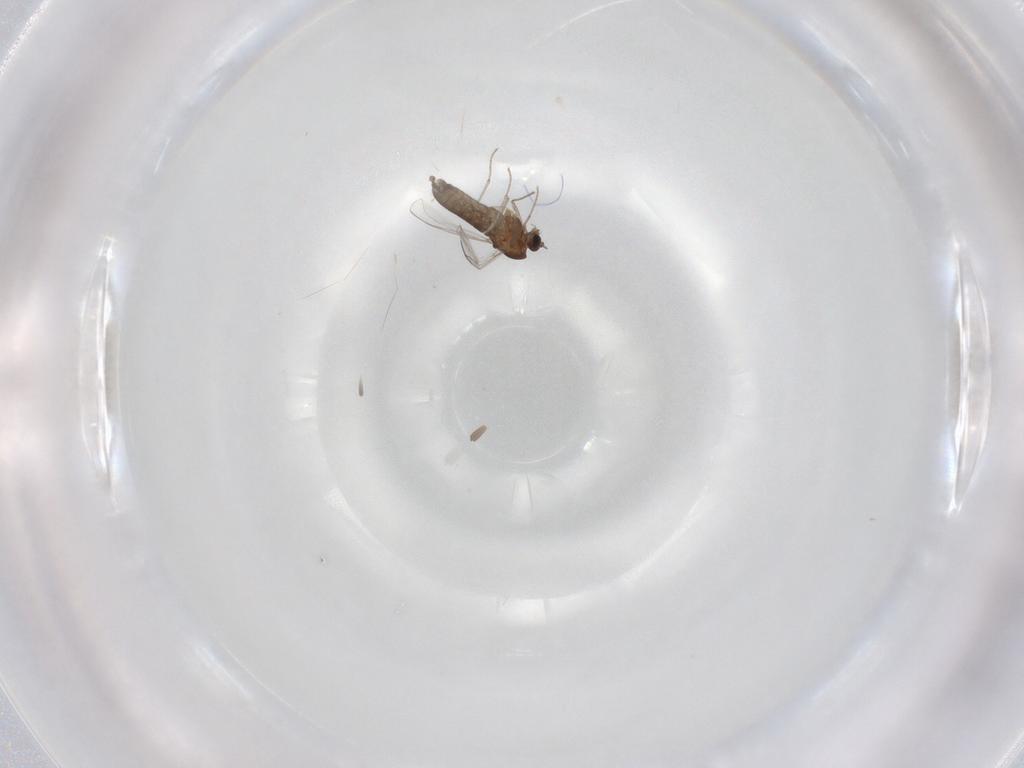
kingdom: Animalia
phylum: Arthropoda
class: Insecta
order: Diptera
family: Chironomidae
